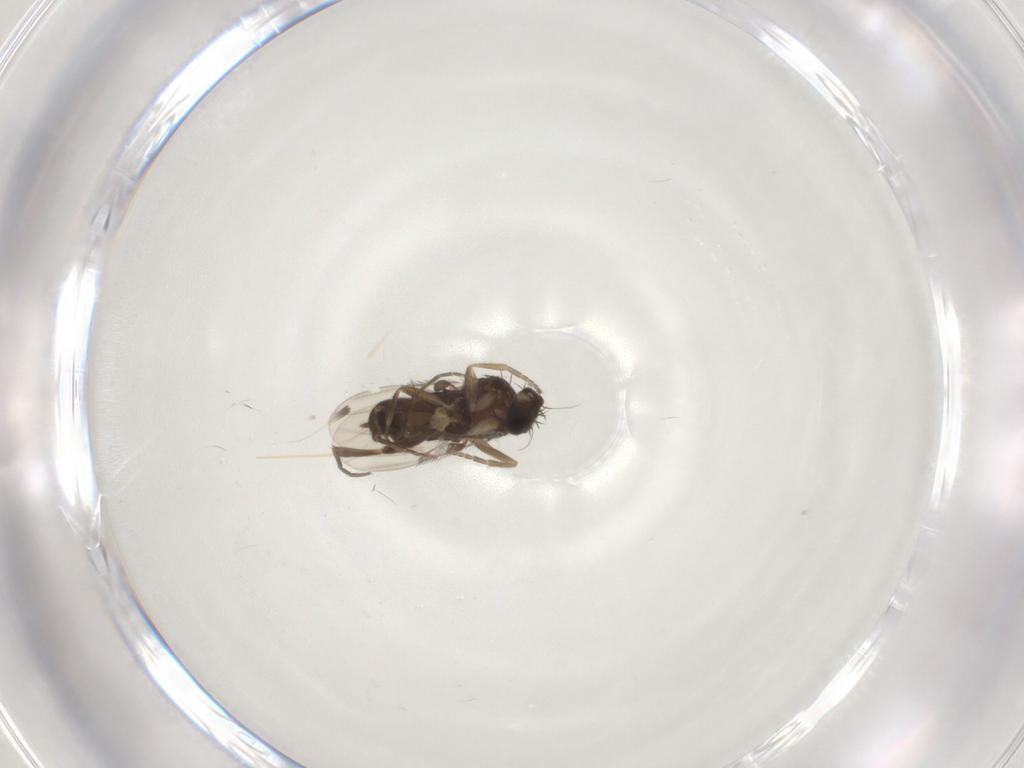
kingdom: Animalia
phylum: Arthropoda
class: Insecta
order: Diptera
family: Phoridae
